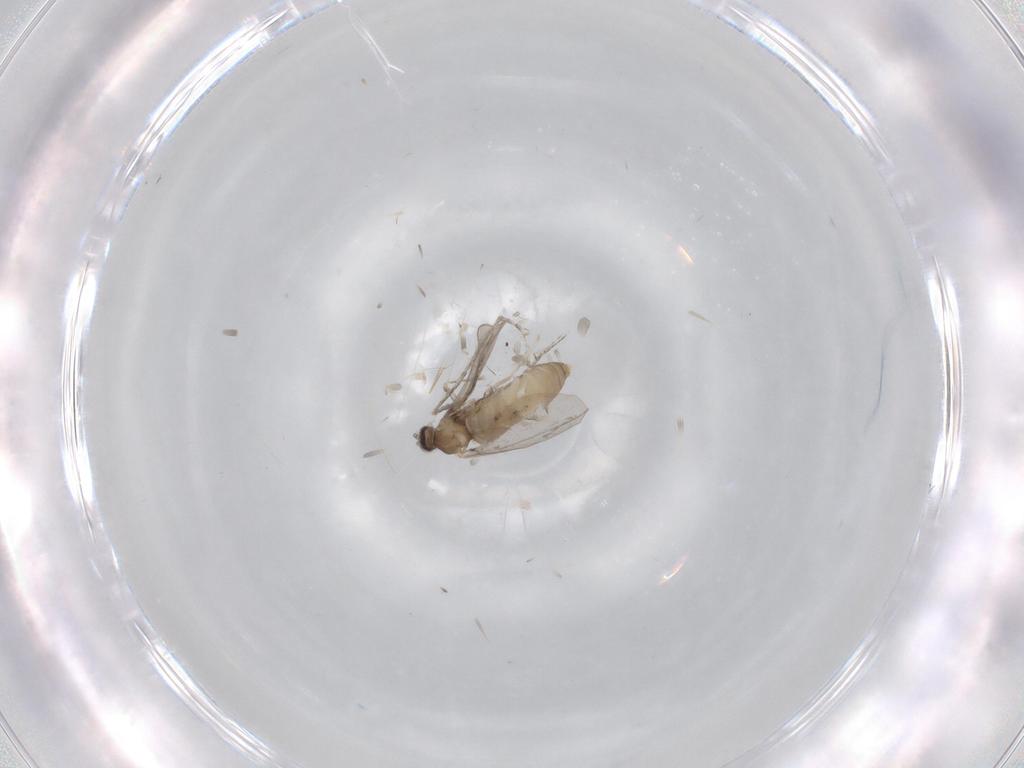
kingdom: Animalia
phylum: Arthropoda
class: Insecta
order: Diptera
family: Cecidomyiidae
